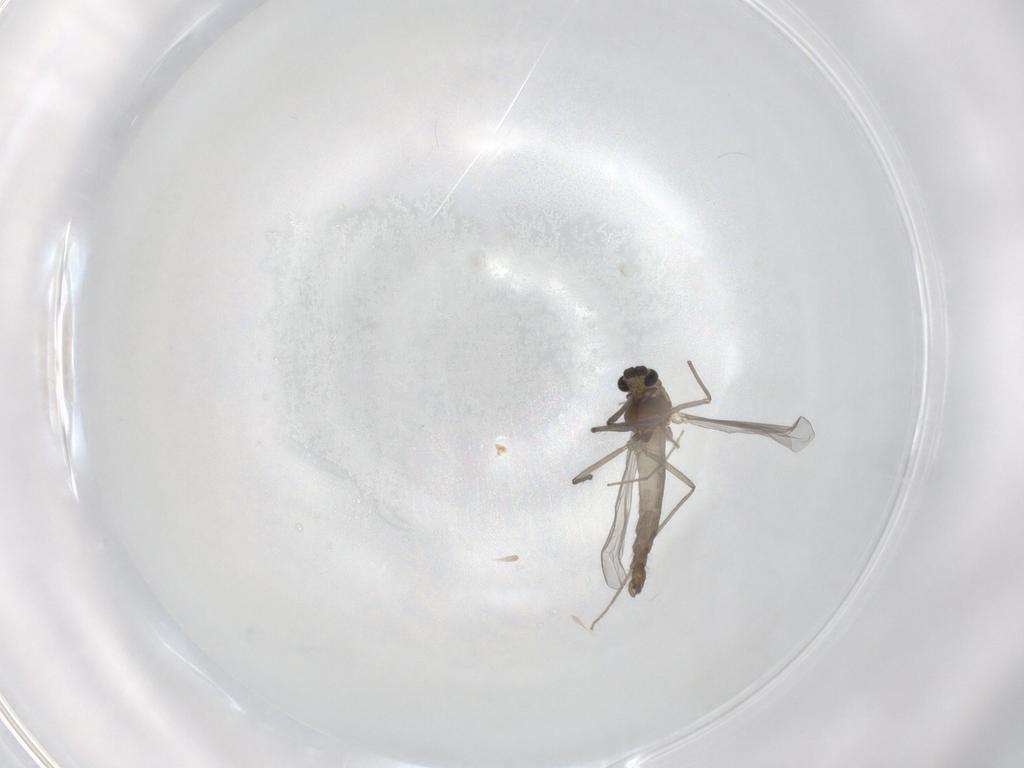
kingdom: Animalia
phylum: Arthropoda
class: Insecta
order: Diptera
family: Chironomidae
